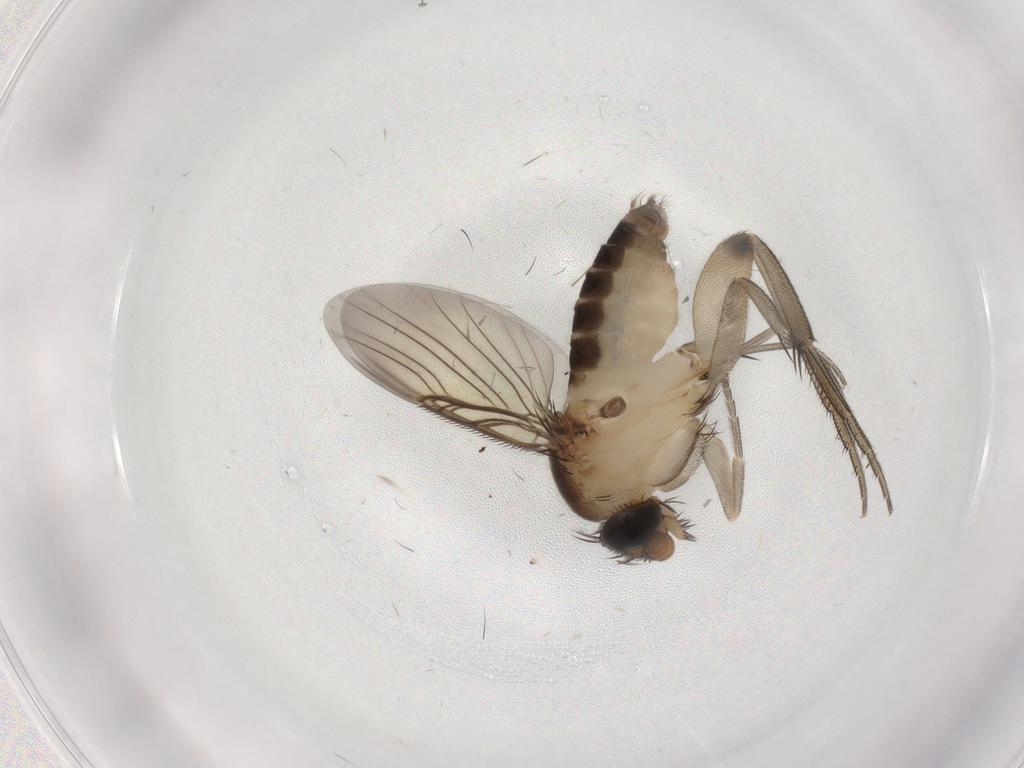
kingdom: Animalia
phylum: Arthropoda
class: Insecta
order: Diptera
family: Phoridae
